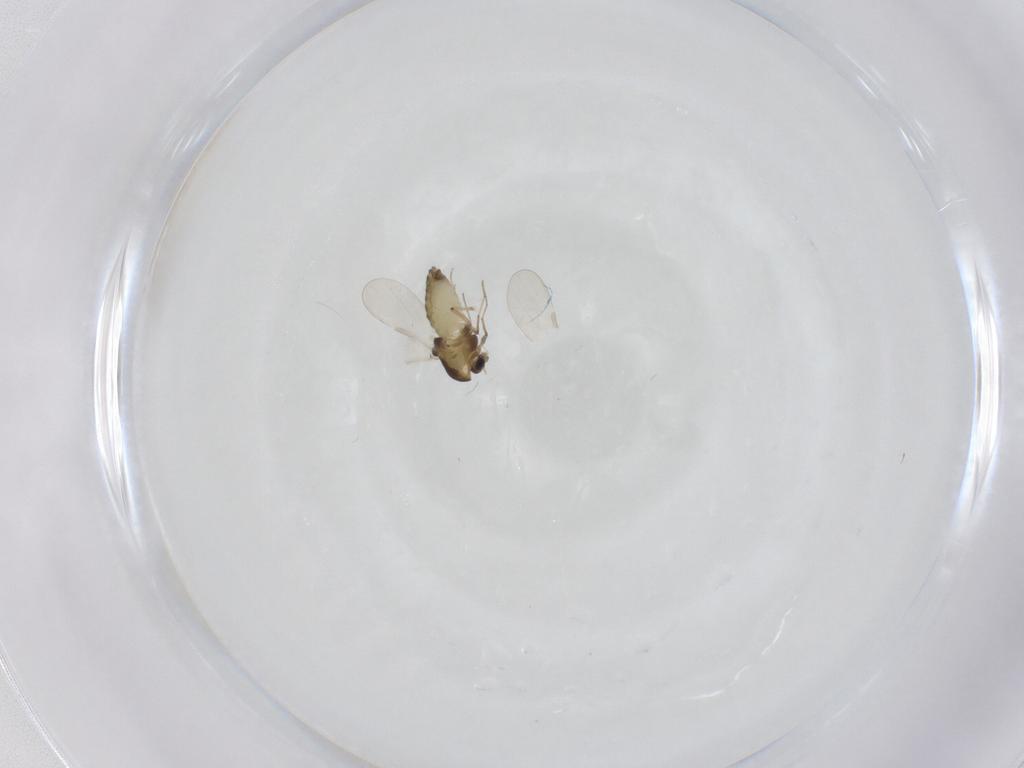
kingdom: Animalia
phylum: Arthropoda
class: Insecta
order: Diptera
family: Chironomidae
